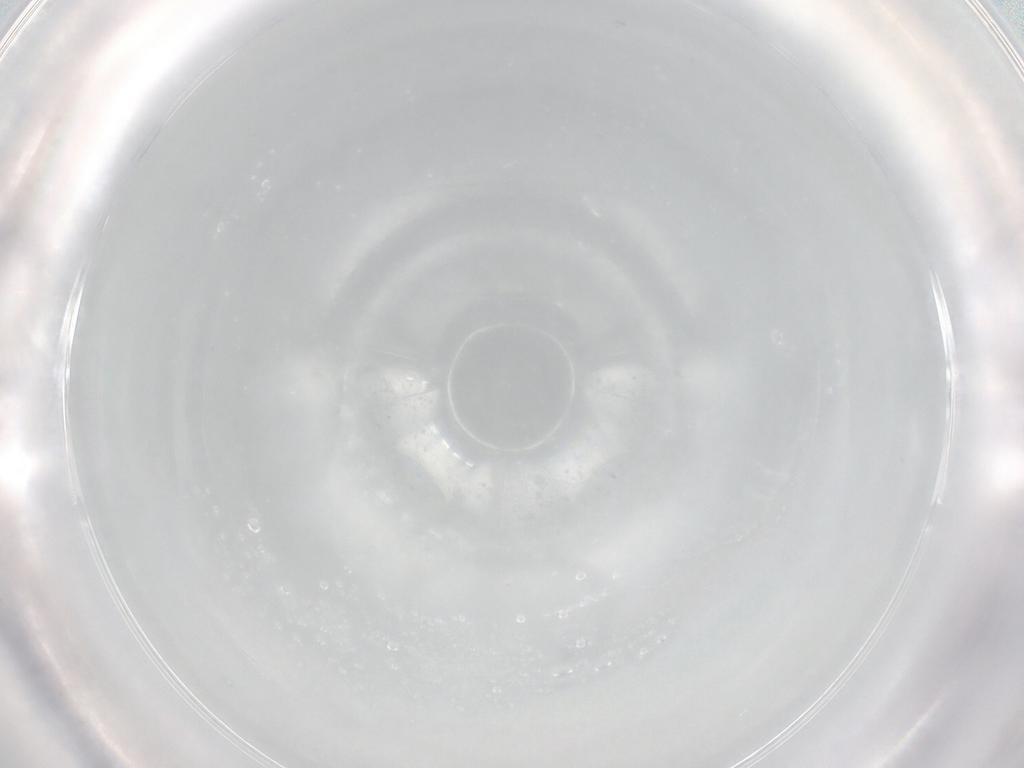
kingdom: Animalia
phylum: Arthropoda
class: Insecta
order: Hymenoptera
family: Ichneumonidae
